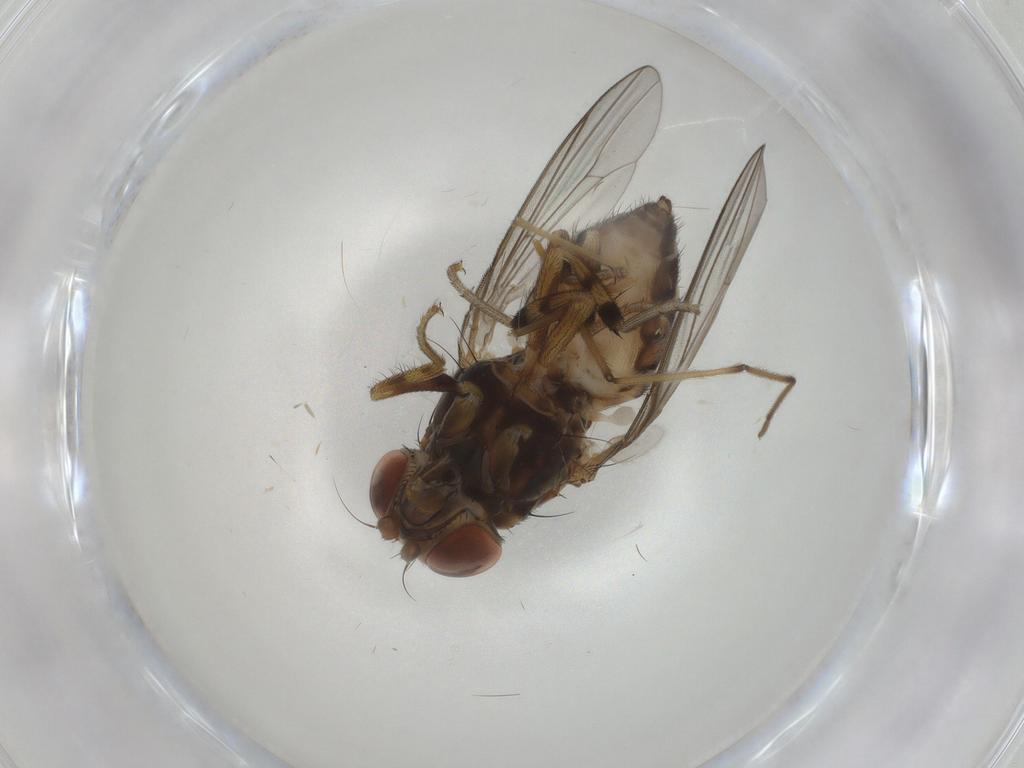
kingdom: Animalia
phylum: Arthropoda
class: Insecta
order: Diptera
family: Drosophilidae
